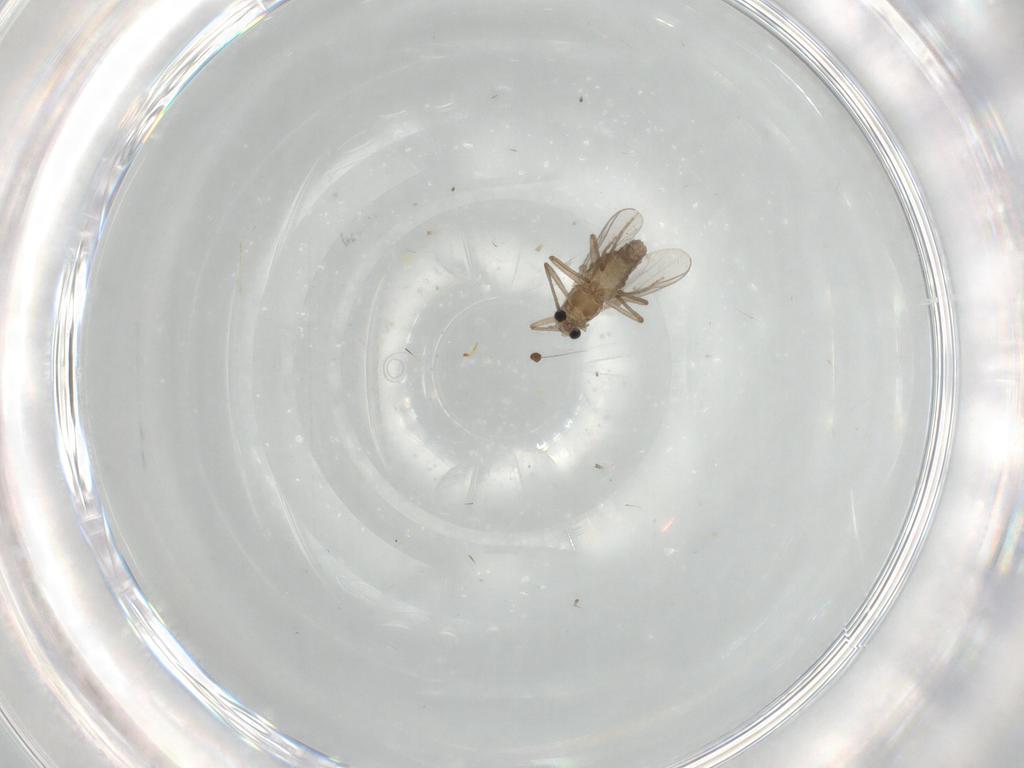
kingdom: Animalia
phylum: Arthropoda
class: Insecta
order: Diptera
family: Chironomidae
